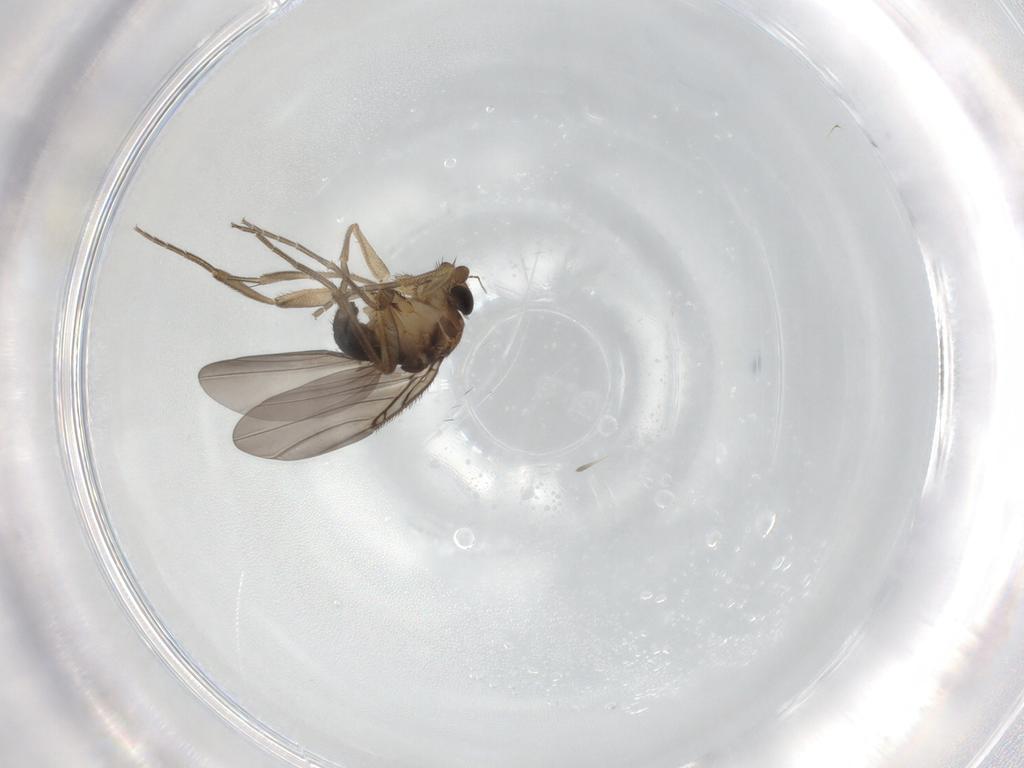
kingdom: Animalia
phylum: Arthropoda
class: Insecta
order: Diptera
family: Phoridae
